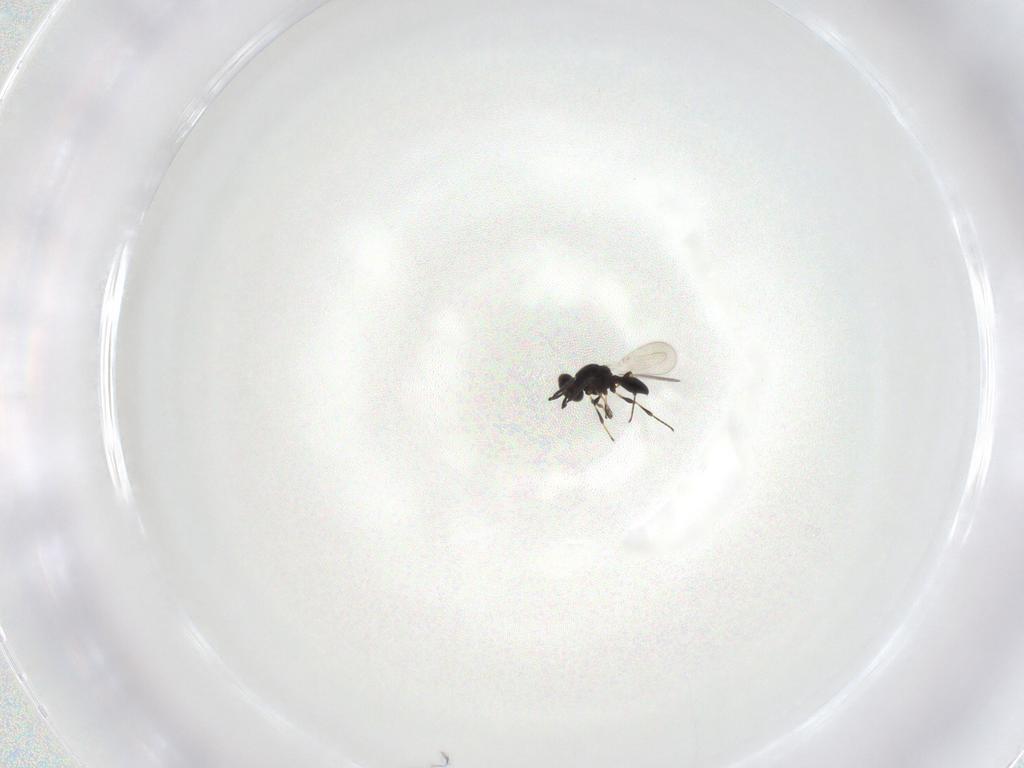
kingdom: Animalia
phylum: Arthropoda
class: Insecta
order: Hymenoptera
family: Platygastridae
